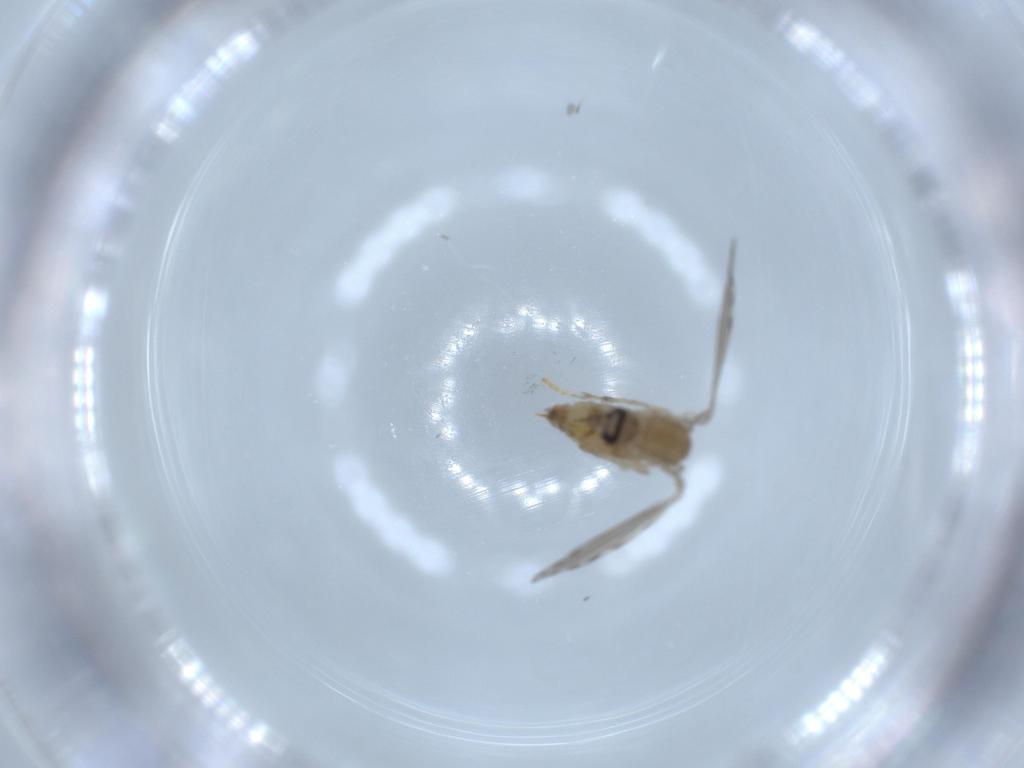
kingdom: Animalia
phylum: Arthropoda
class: Insecta
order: Diptera
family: Psychodidae
